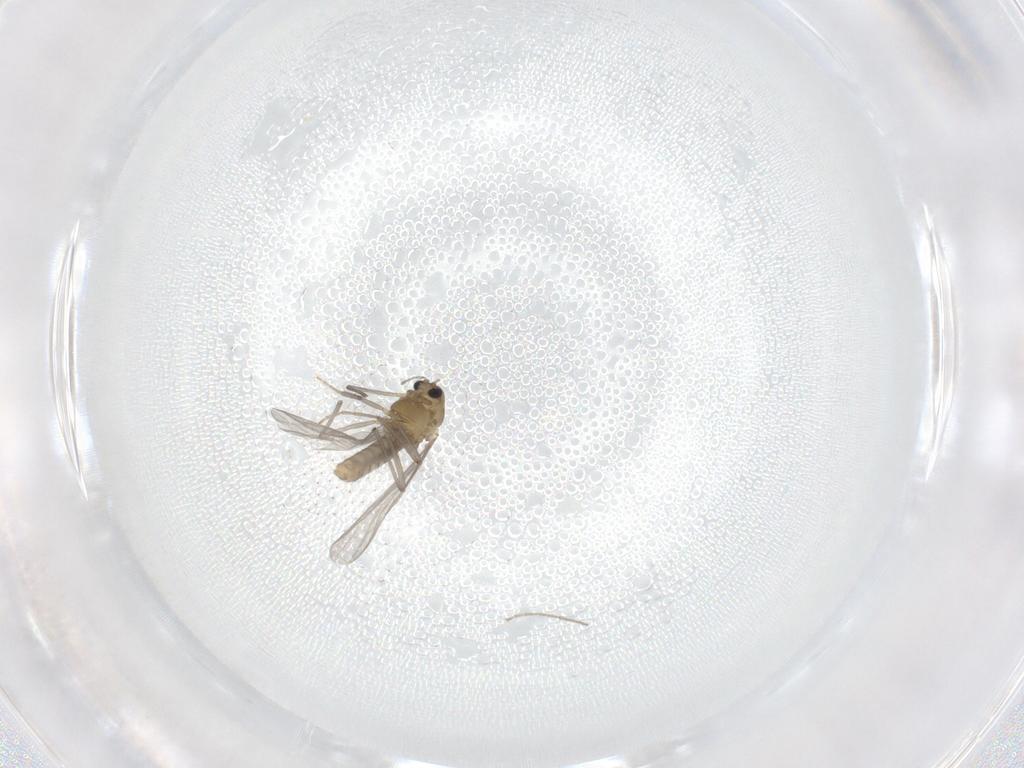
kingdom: Animalia
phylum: Arthropoda
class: Insecta
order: Diptera
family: Chironomidae
